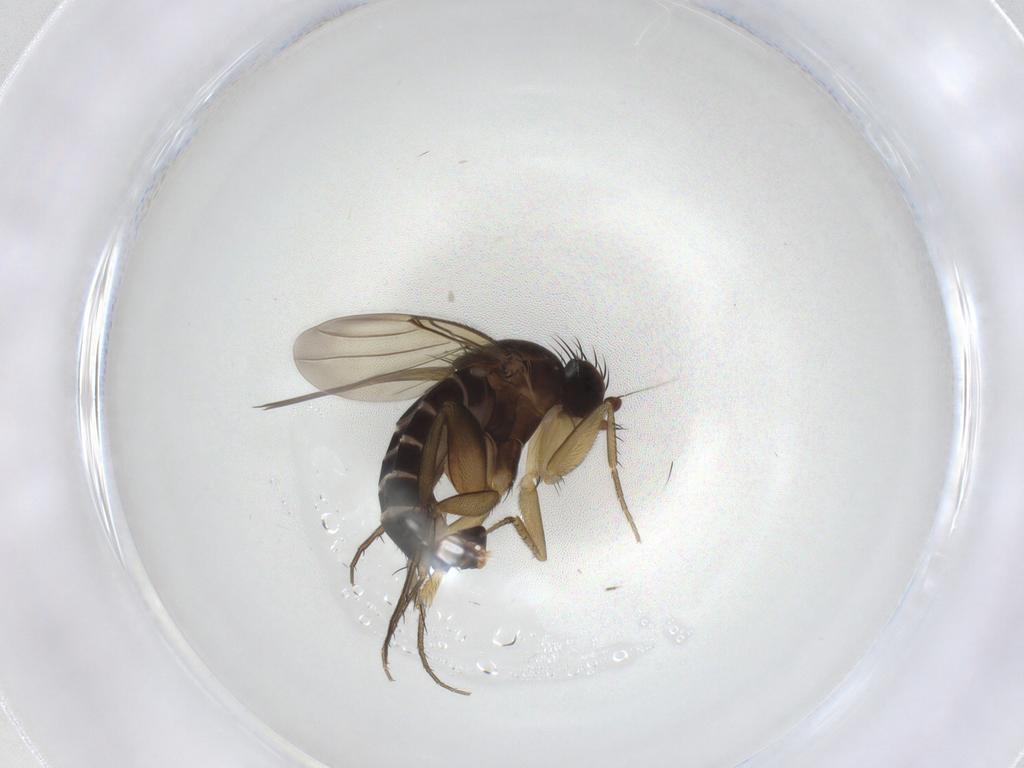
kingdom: Animalia
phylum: Arthropoda
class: Insecta
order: Diptera
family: Phoridae
